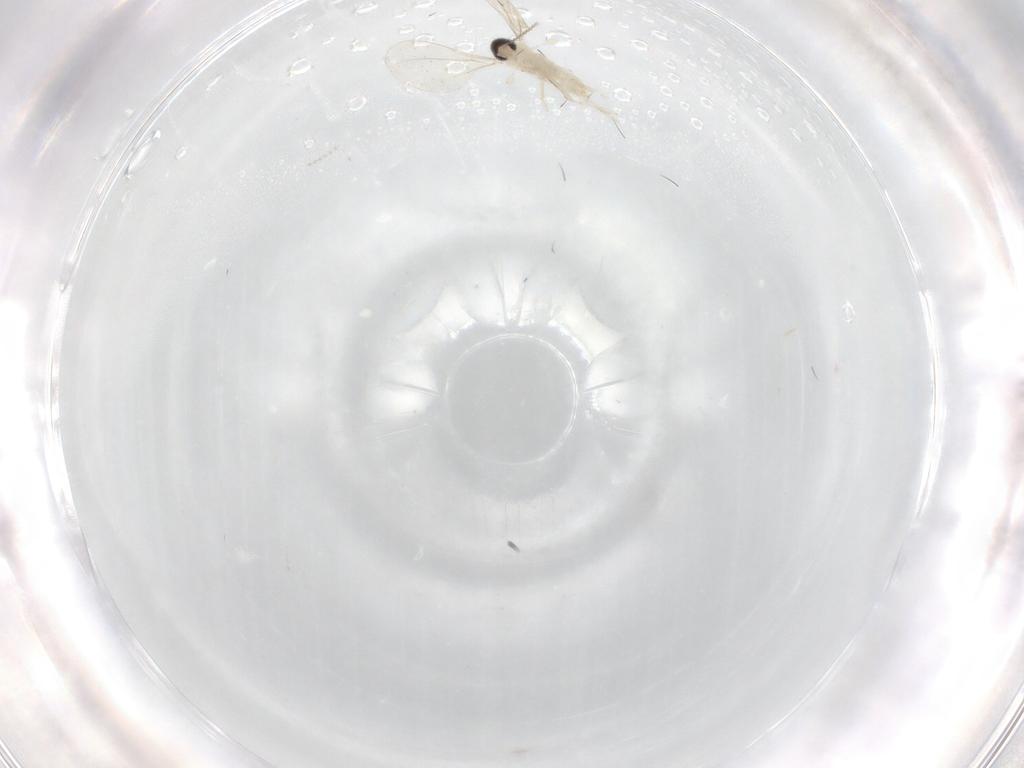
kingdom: Animalia
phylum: Arthropoda
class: Insecta
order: Diptera
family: Cecidomyiidae
